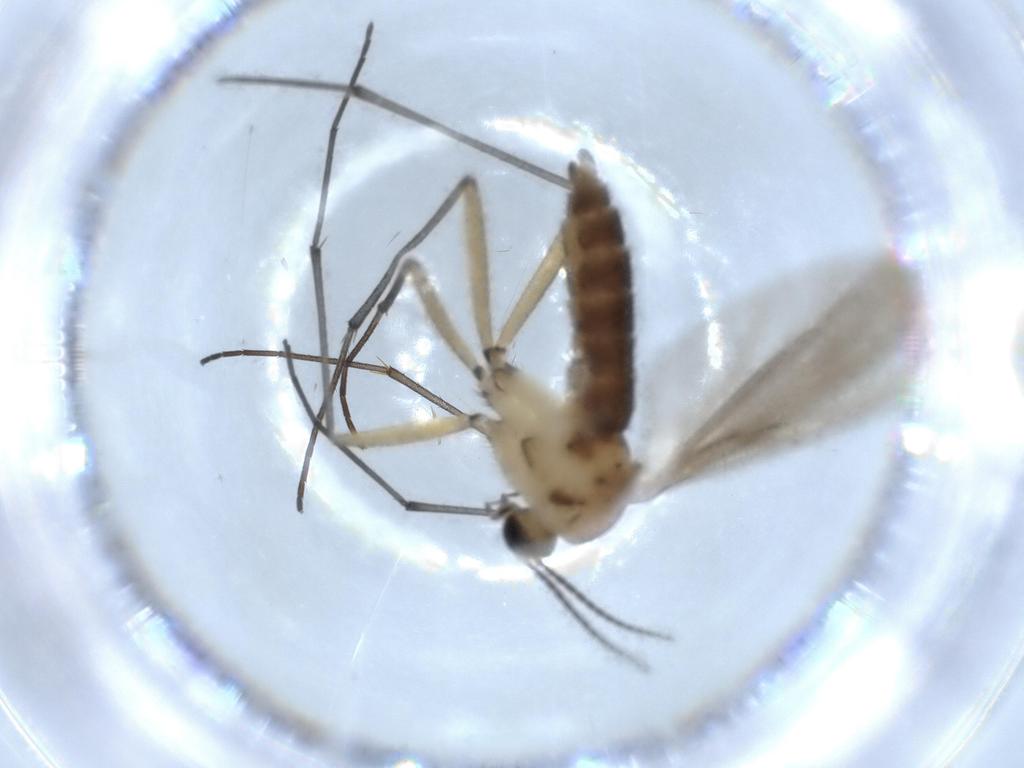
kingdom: Animalia
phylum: Arthropoda
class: Insecta
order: Diptera
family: Sciaridae
